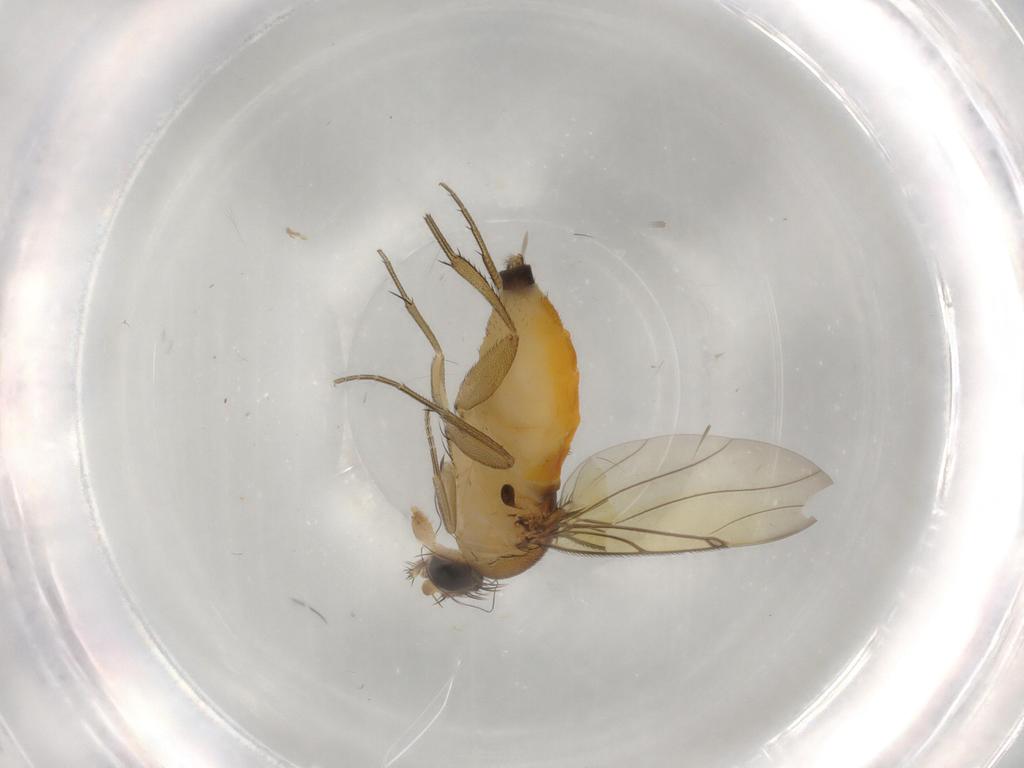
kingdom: Animalia
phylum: Arthropoda
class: Insecta
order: Diptera
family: Phoridae
